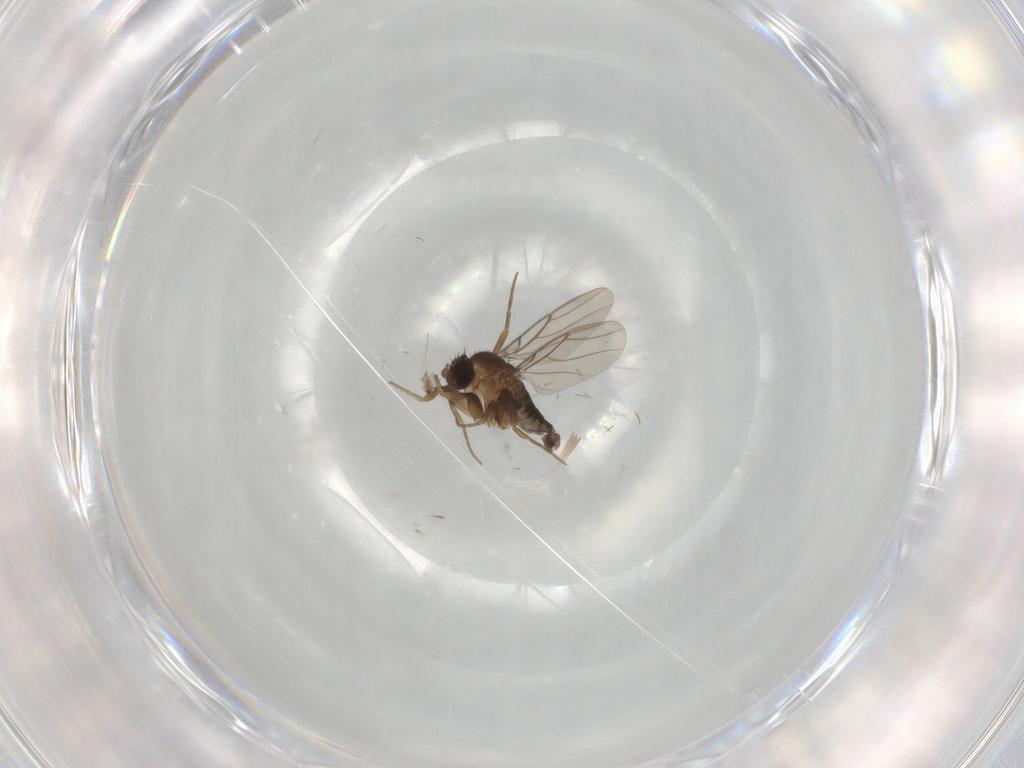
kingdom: Animalia
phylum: Arthropoda
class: Insecta
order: Diptera
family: Phoridae
